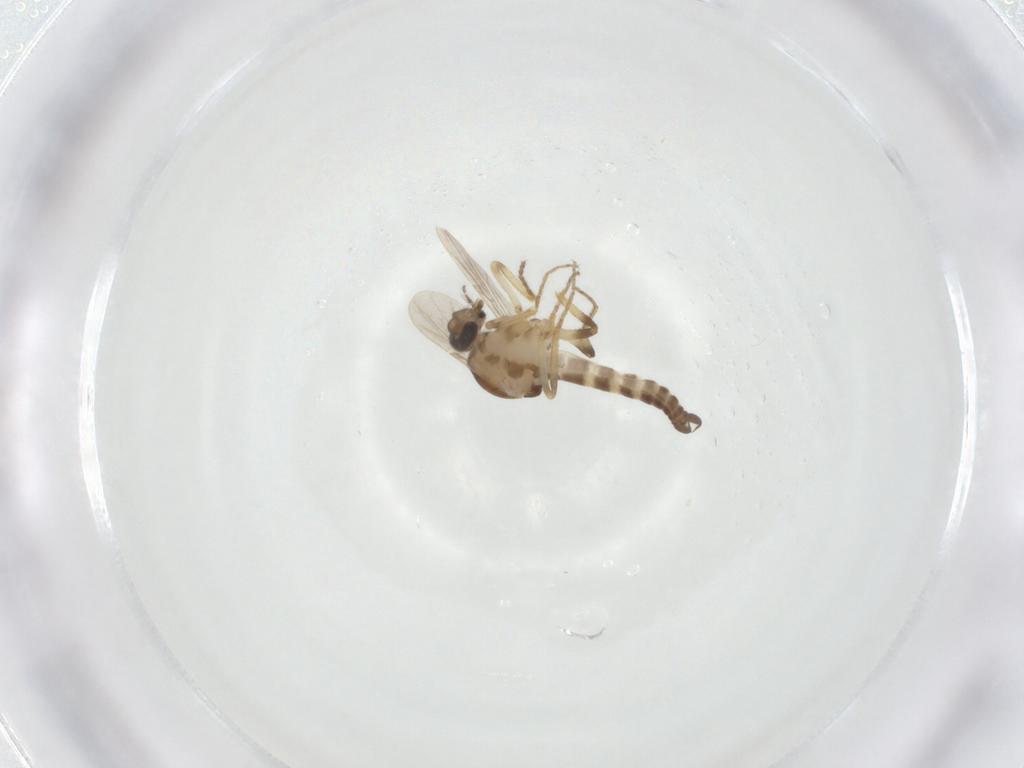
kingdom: Animalia
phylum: Arthropoda
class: Insecta
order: Diptera
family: Ceratopogonidae
